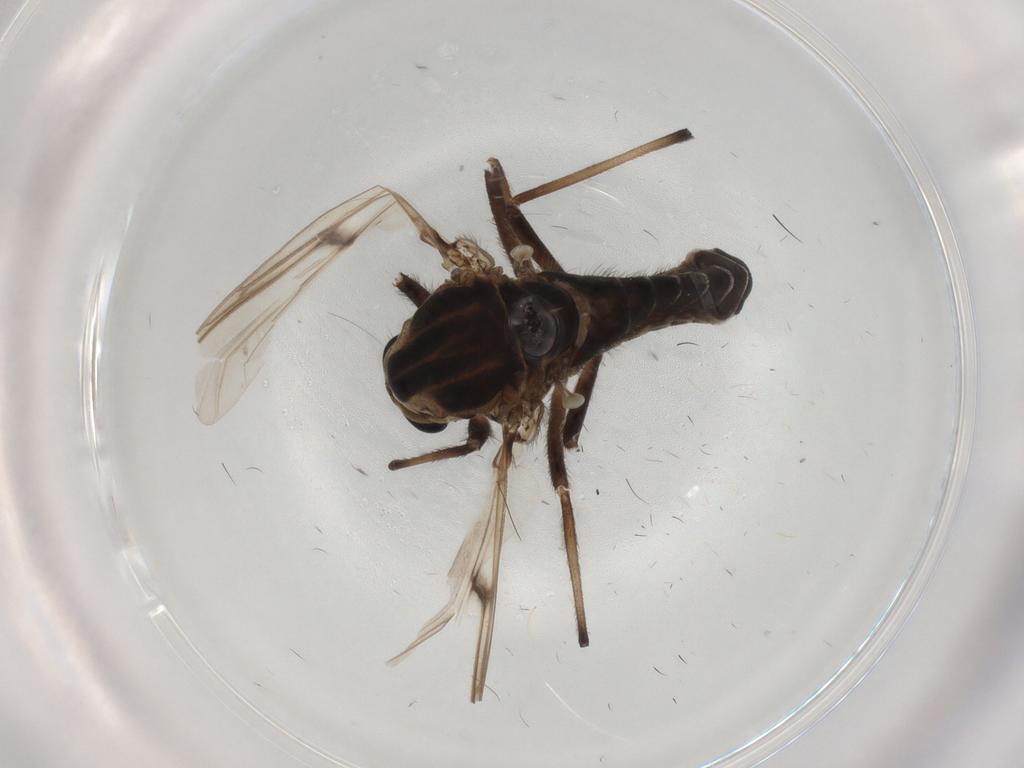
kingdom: Animalia
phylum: Arthropoda
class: Insecta
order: Diptera
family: Chironomidae
